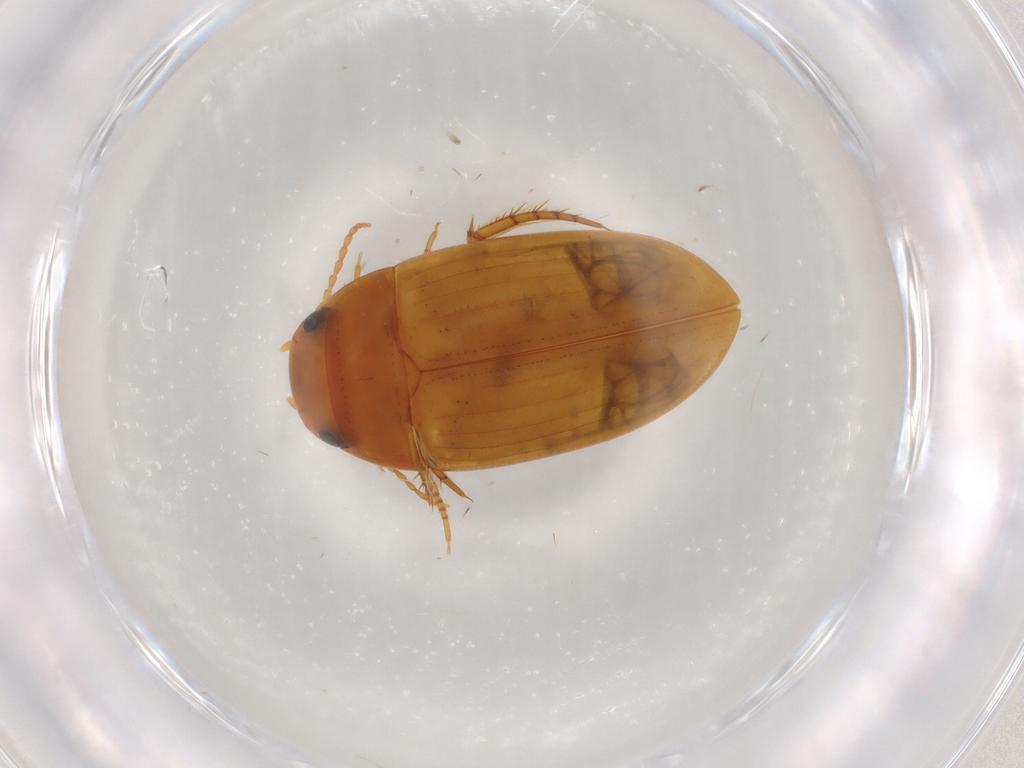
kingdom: Animalia
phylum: Arthropoda
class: Insecta
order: Coleoptera
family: Dytiscidae
